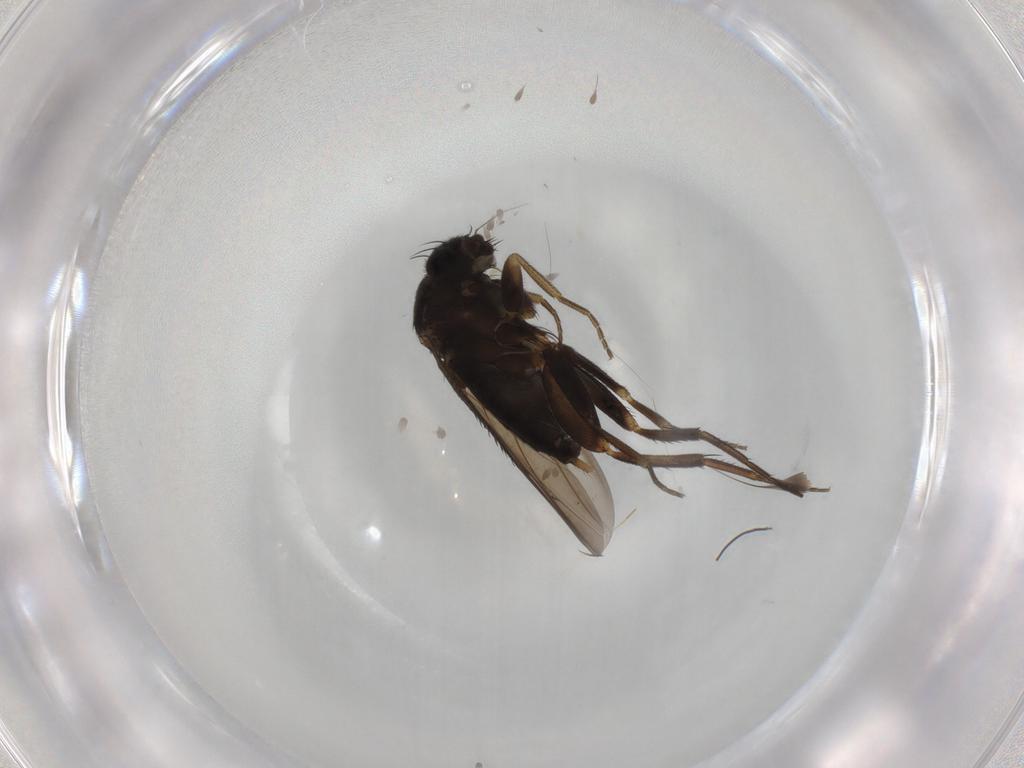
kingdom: Animalia
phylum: Arthropoda
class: Insecta
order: Diptera
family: Phoridae
